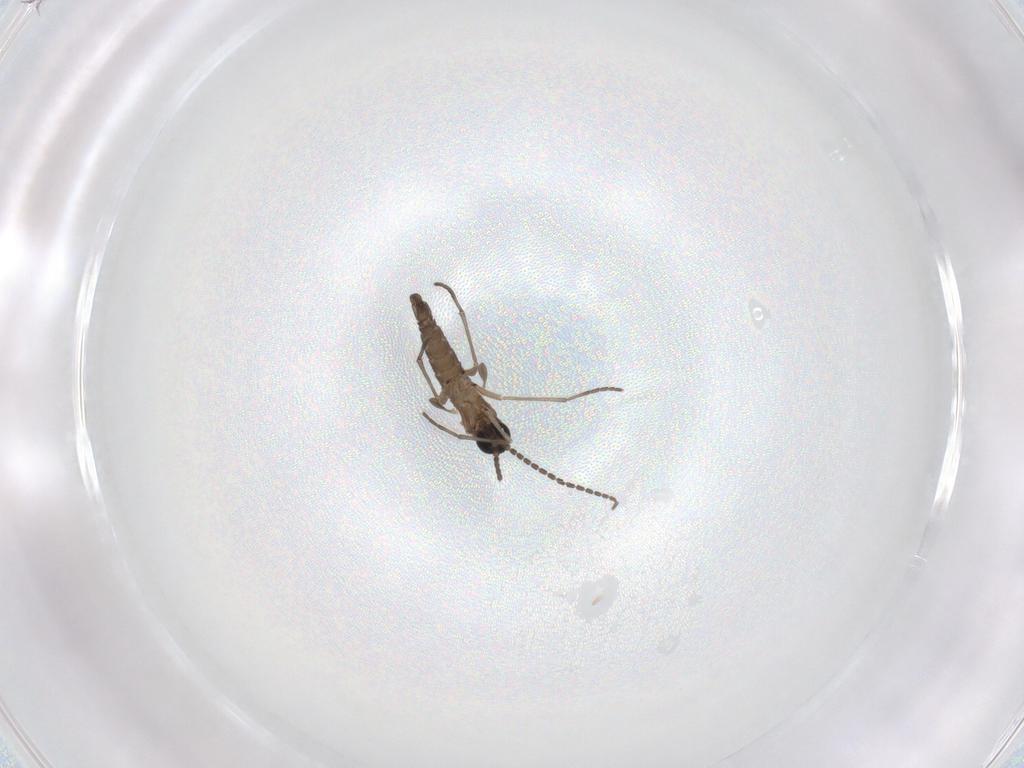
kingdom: Animalia
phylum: Arthropoda
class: Insecta
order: Diptera
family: Sciaridae
